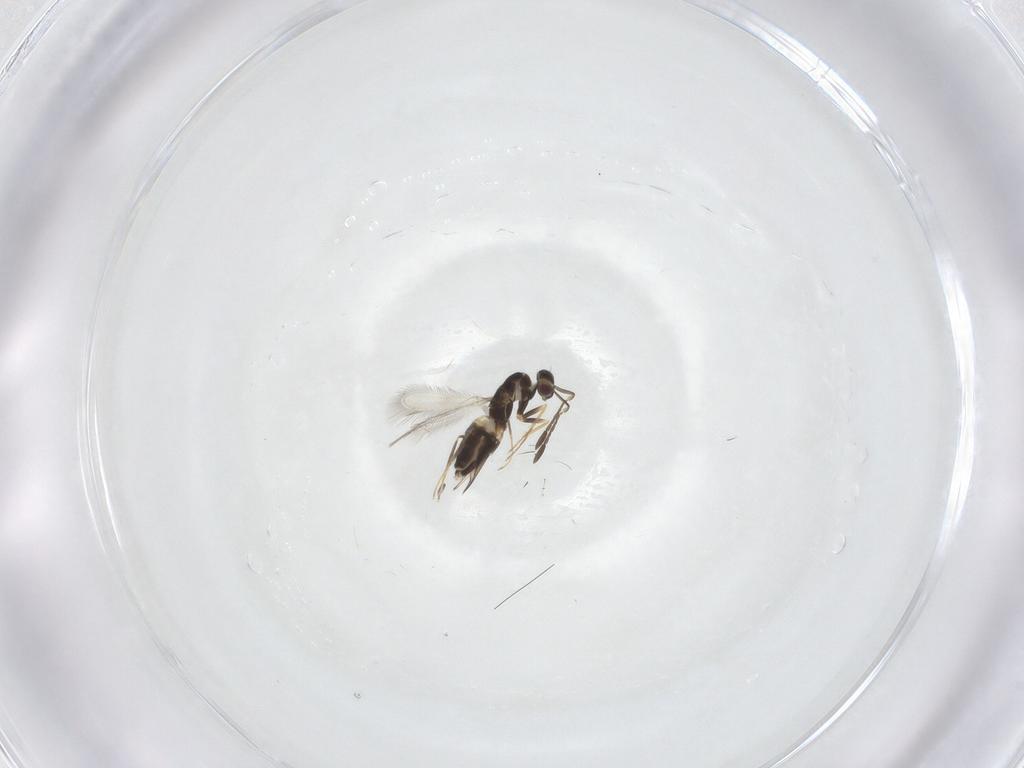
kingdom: Animalia
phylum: Arthropoda
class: Insecta
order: Hymenoptera
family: Mymaridae
